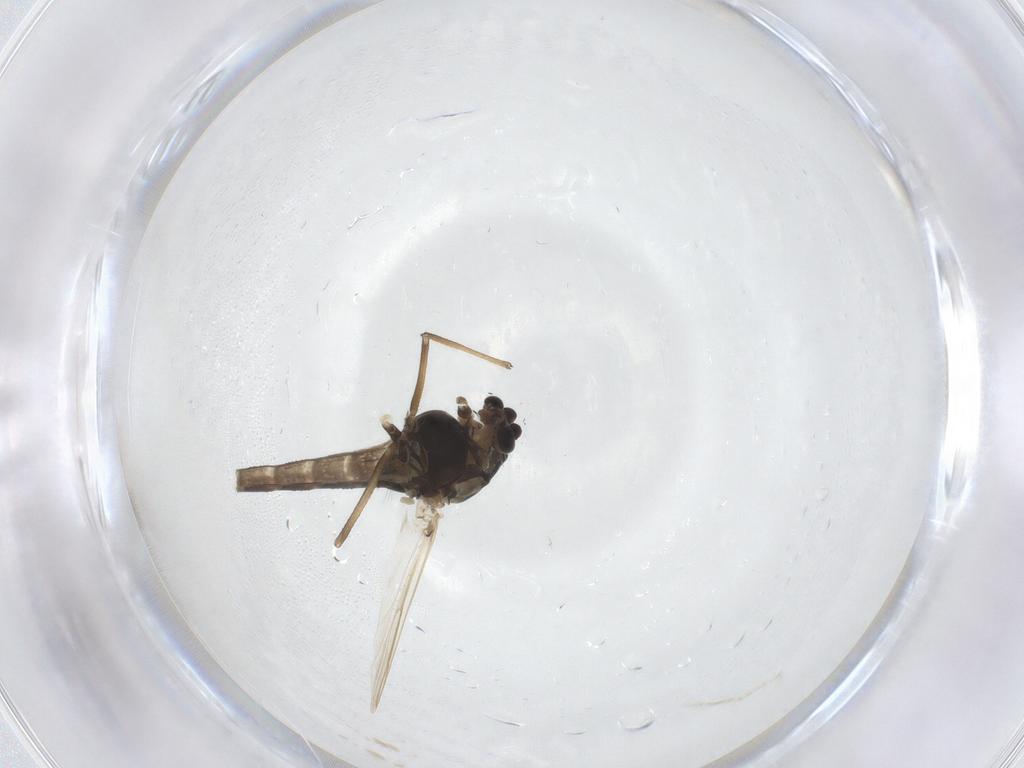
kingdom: Animalia
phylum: Arthropoda
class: Insecta
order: Diptera
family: Chironomidae
